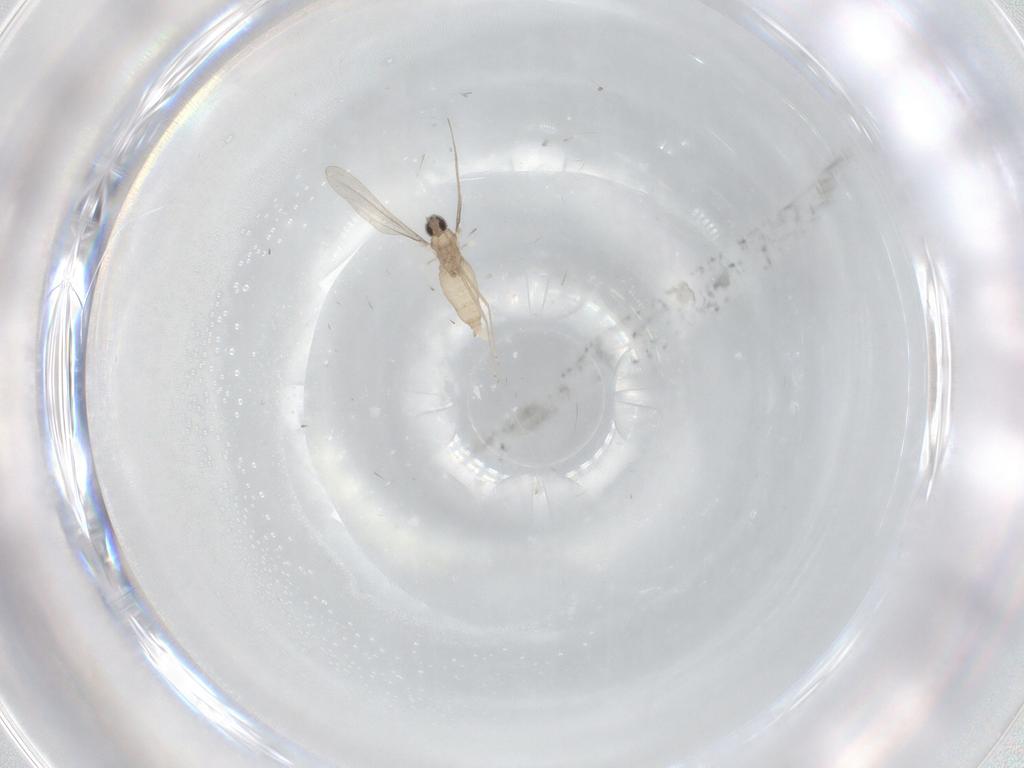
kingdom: Animalia
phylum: Arthropoda
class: Insecta
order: Diptera
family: Cecidomyiidae
